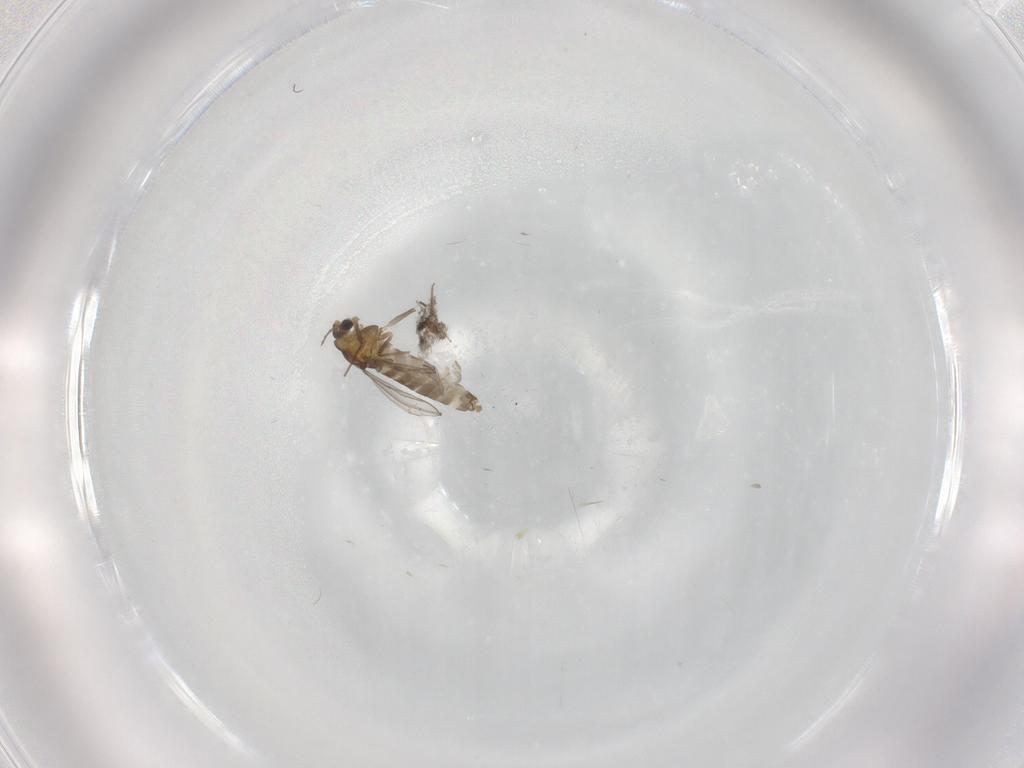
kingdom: Animalia
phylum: Arthropoda
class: Insecta
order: Diptera
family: Chironomidae
